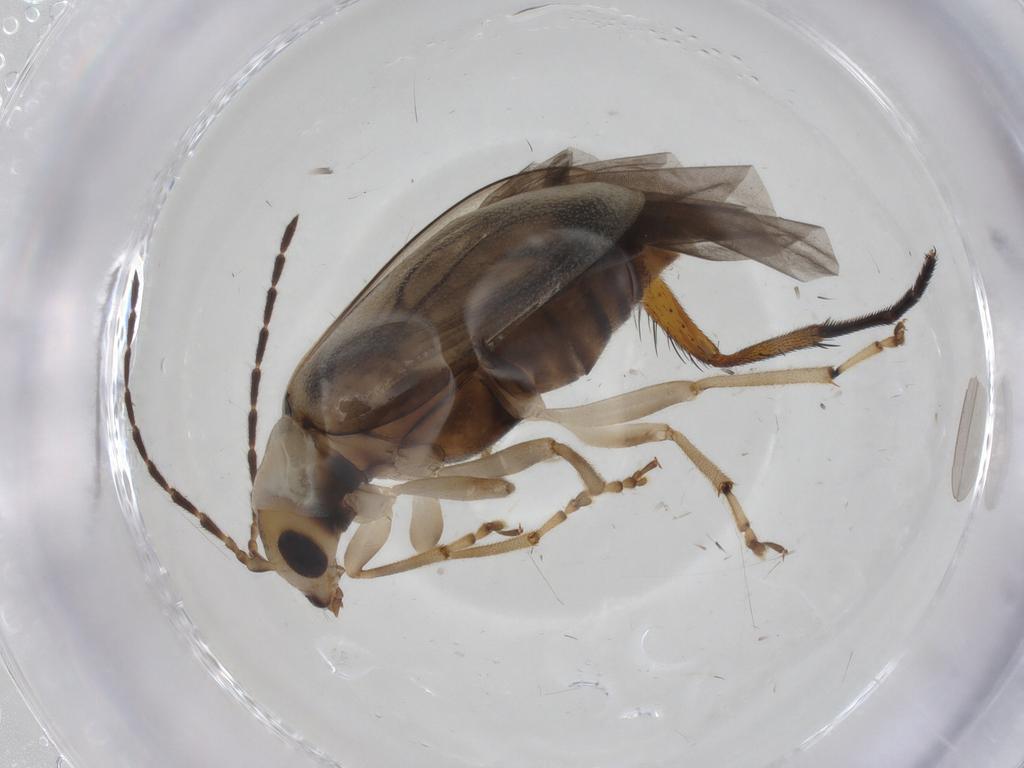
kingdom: Animalia
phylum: Arthropoda
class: Insecta
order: Coleoptera
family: Chrysomelidae
